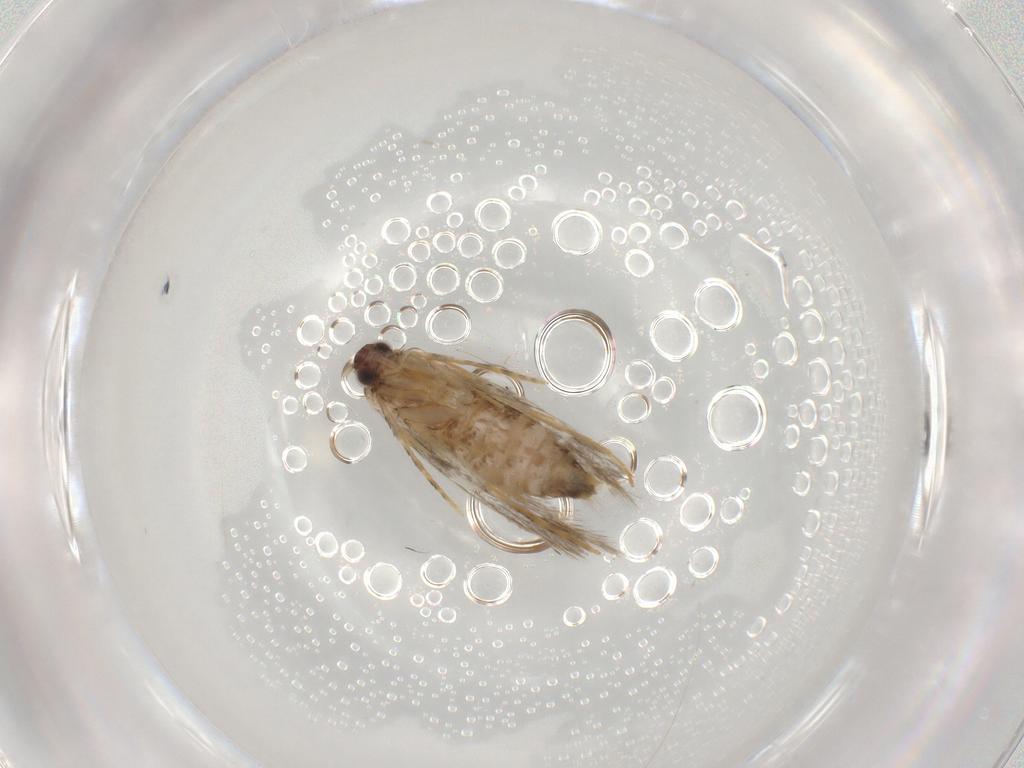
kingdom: Animalia
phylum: Arthropoda
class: Insecta
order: Lepidoptera
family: Tineidae
